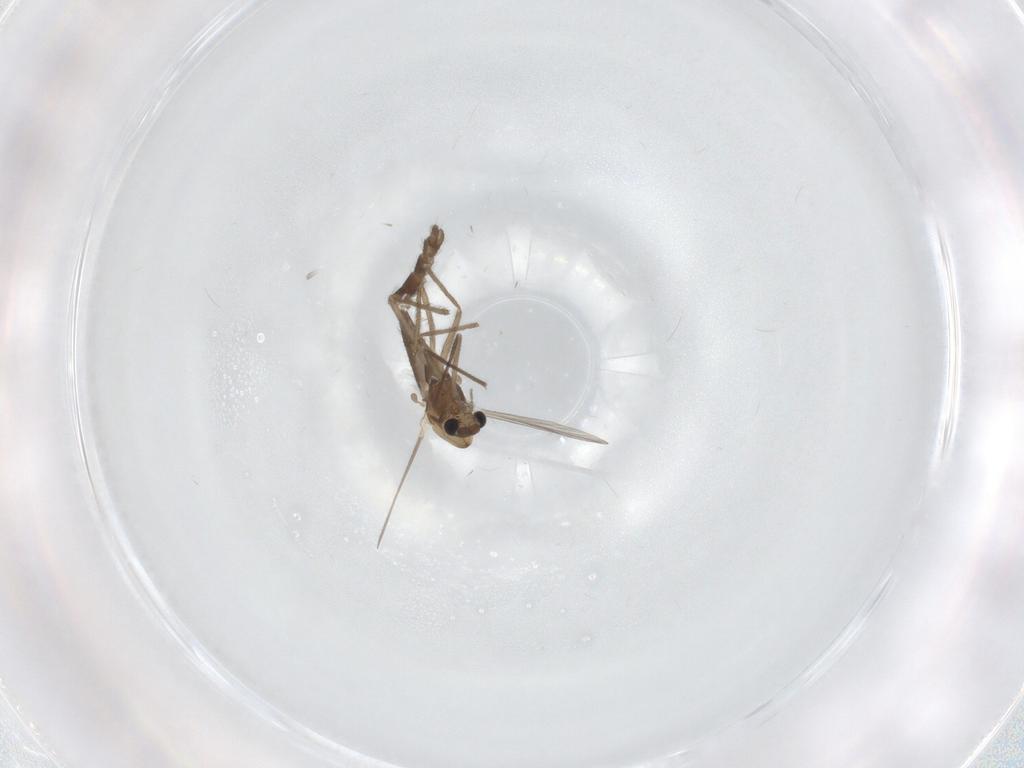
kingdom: Animalia
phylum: Arthropoda
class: Insecta
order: Diptera
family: Chironomidae
